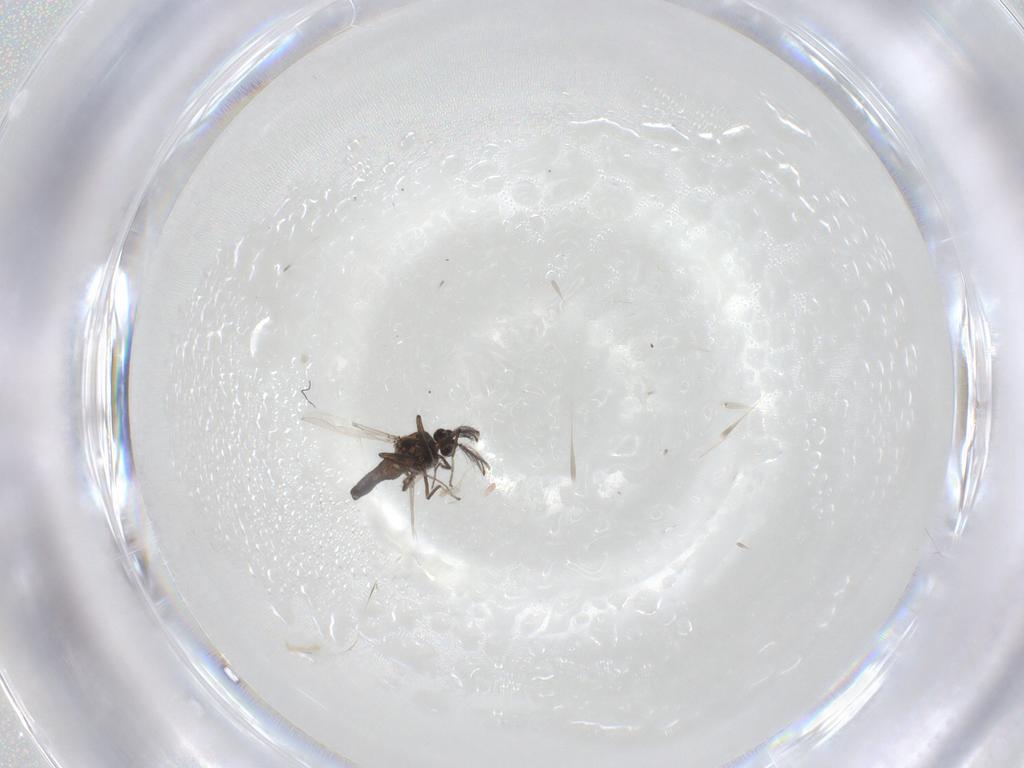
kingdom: Animalia
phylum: Arthropoda
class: Insecta
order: Diptera
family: Ceratopogonidae
